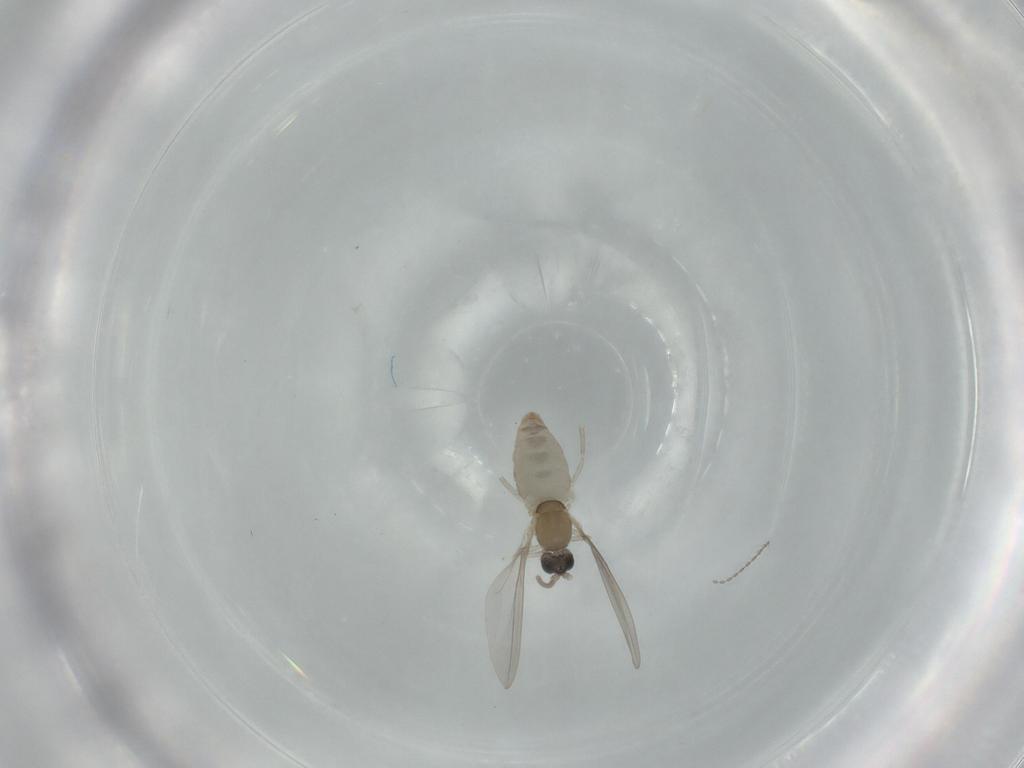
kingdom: Animalia
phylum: Arthropoda
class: Insecta
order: Diptera
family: Cecidomyiidae
